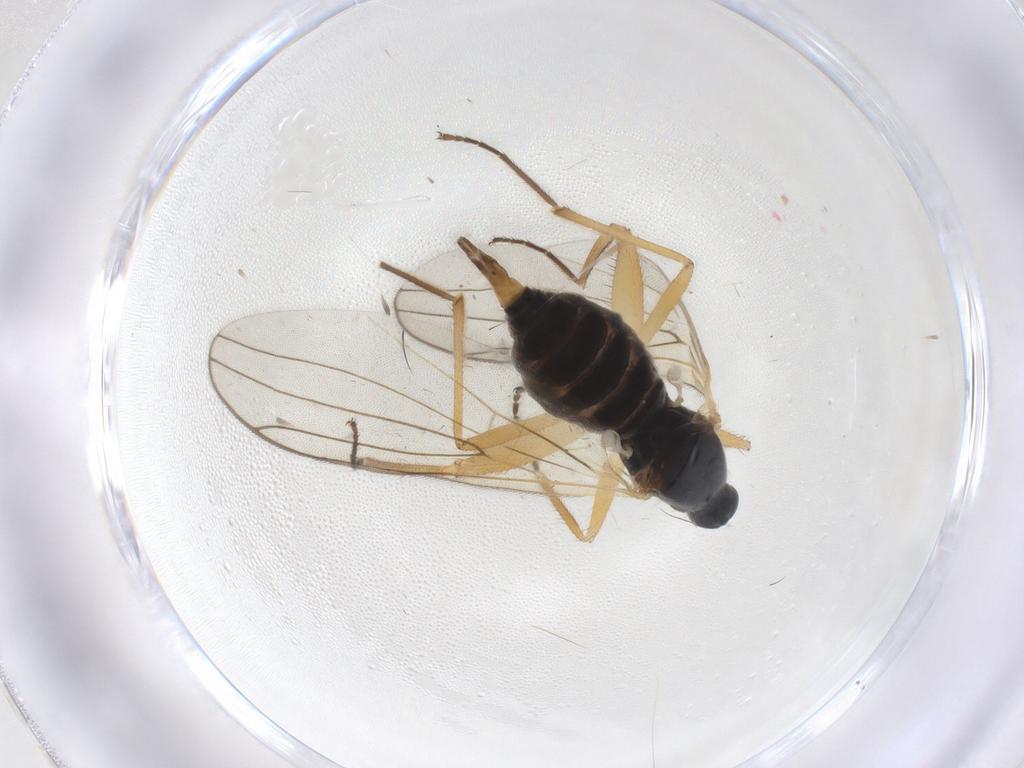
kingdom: Animalia
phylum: Arthropoda
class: Insecta
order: Diptera
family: Hybotidae
